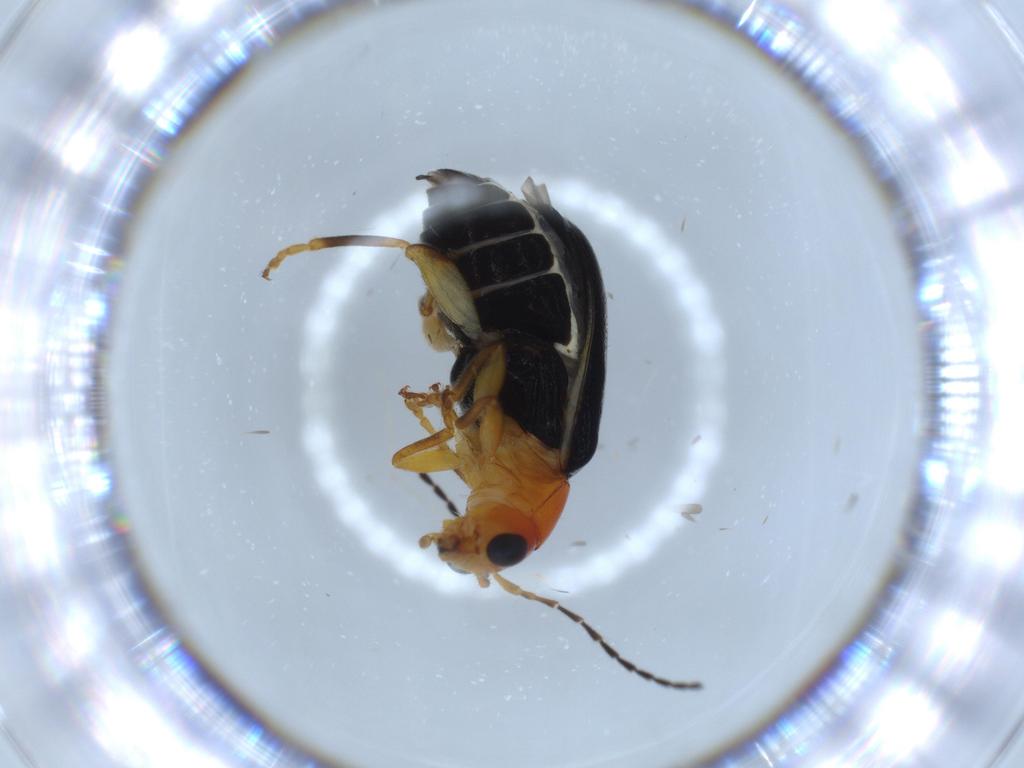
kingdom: Animalia
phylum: Arthropoda
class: Insecta
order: Coleoptera
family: Chrysomelidae
